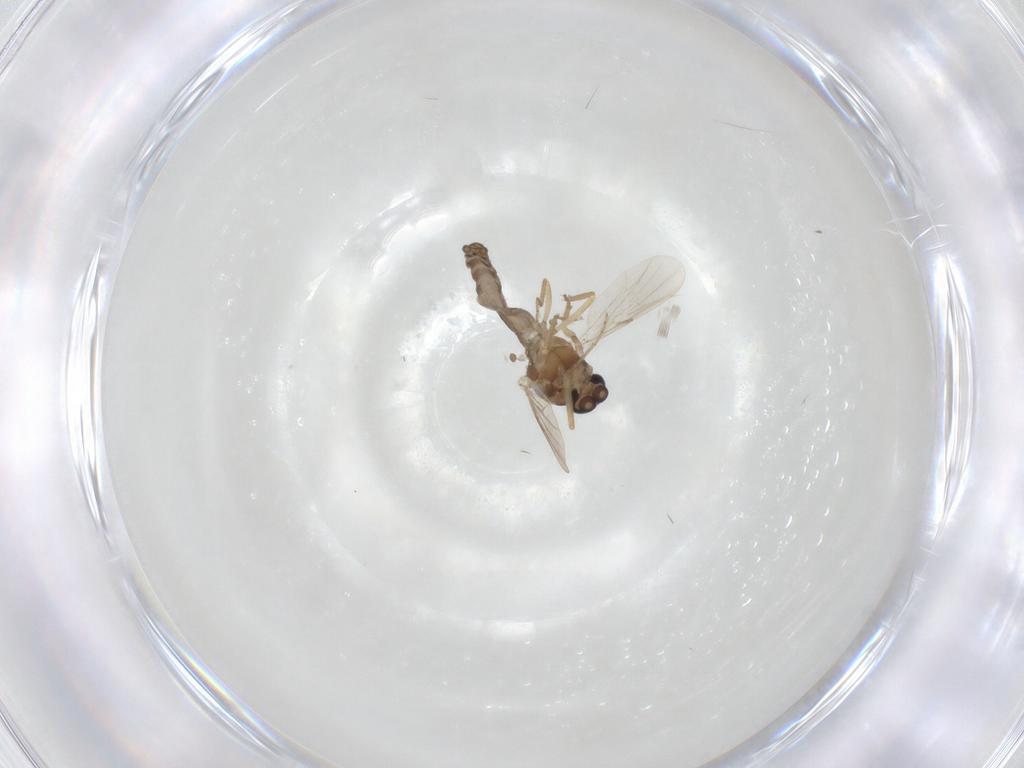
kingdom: Animalia
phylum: Arthropoda
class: Insecta
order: Diptera
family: Ceratopogonidae
